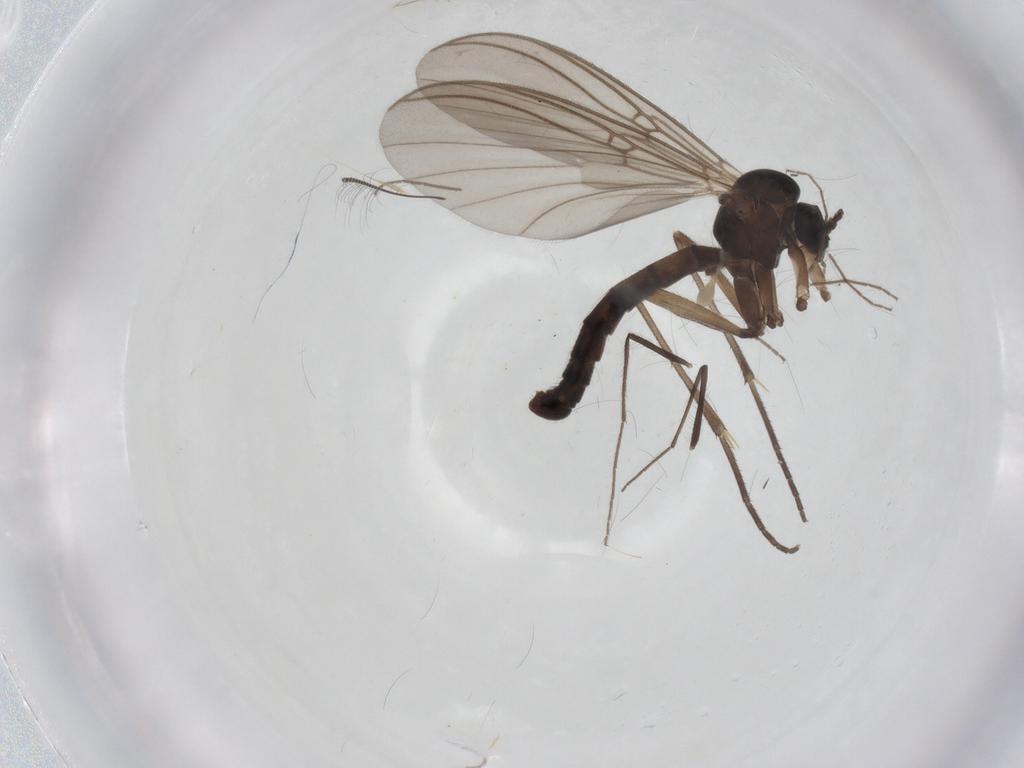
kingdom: Animalia
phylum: Arthropoda
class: Insecta
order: Diptera
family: Mycetophilidae
